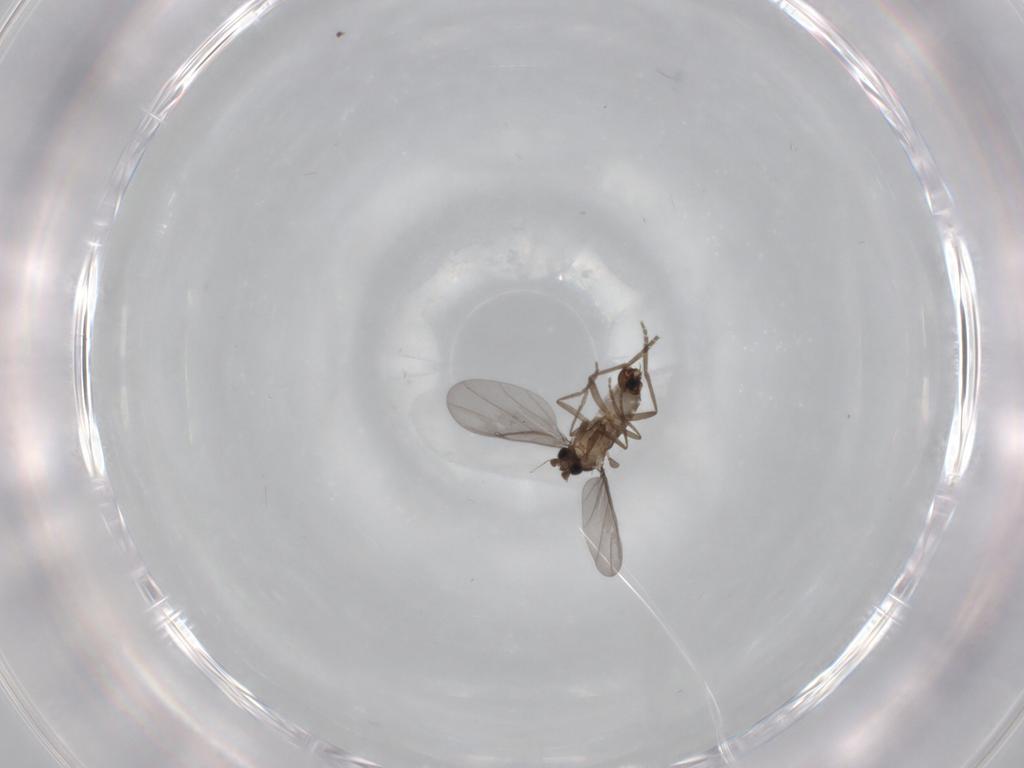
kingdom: Animalia
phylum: Arthropoda
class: Insecta
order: Diptera
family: Phoridae
